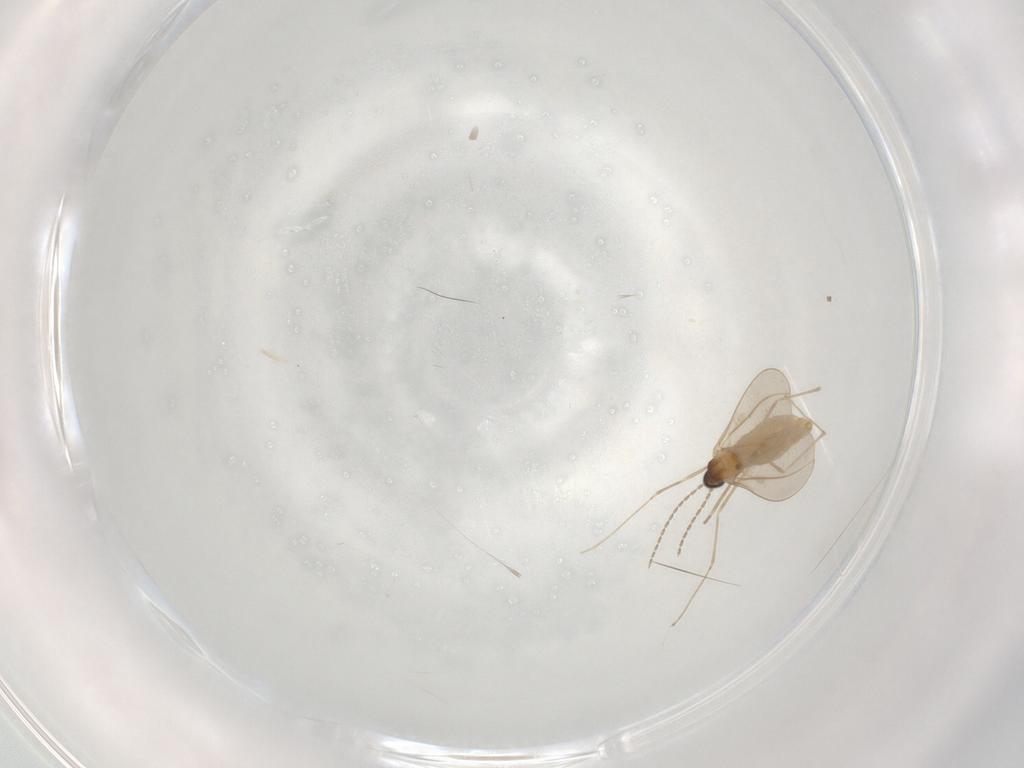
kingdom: Animalia
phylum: Arthropoda
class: Insecta
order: Diptera
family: Cecidomyiidae
